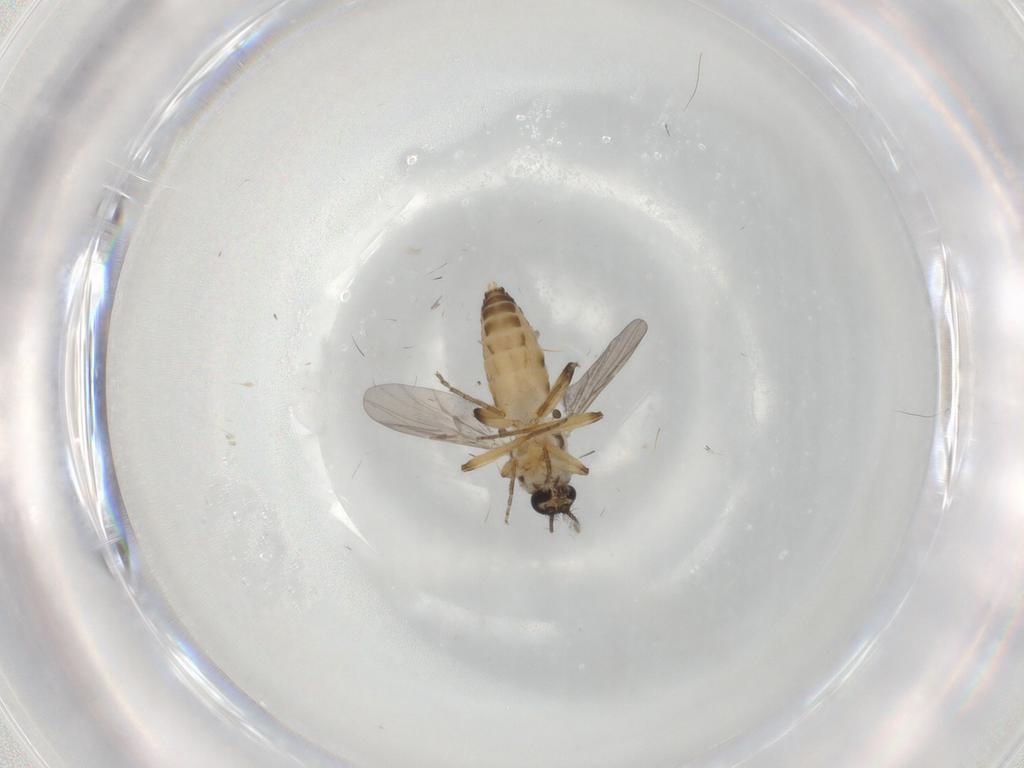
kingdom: Animalia
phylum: Arthropoda
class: Insecta
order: Diptera
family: Ceratopogonidae
